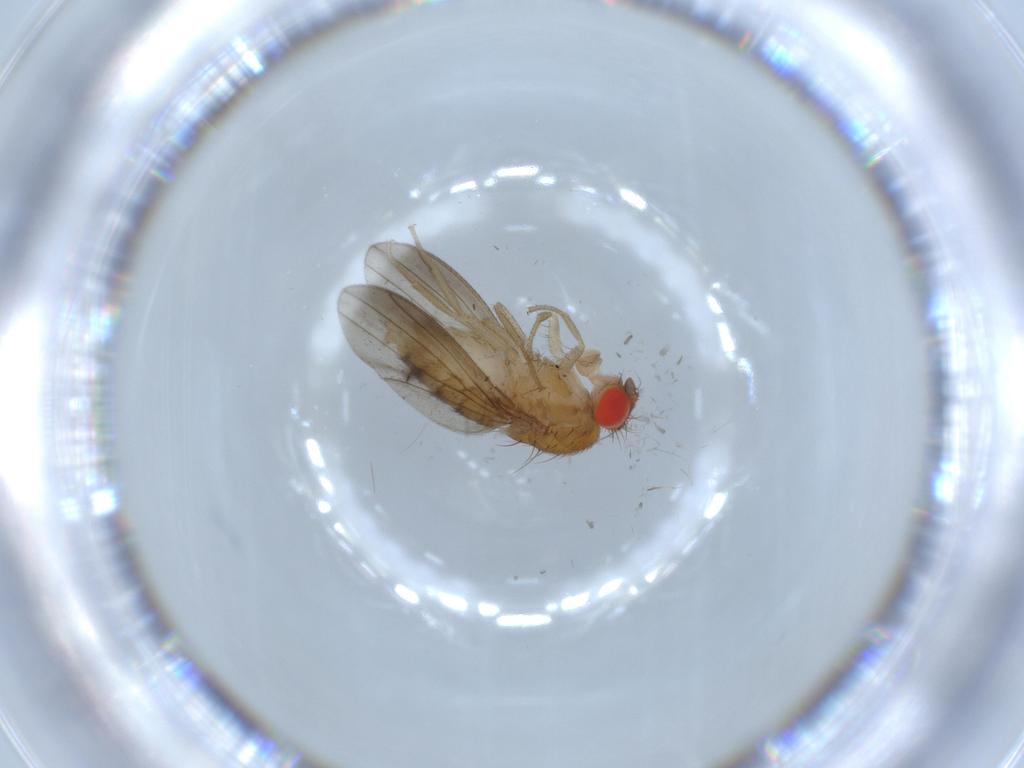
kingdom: Animalia
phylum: Arthropoda
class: Insecta
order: Diptera
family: Drosophilidae
